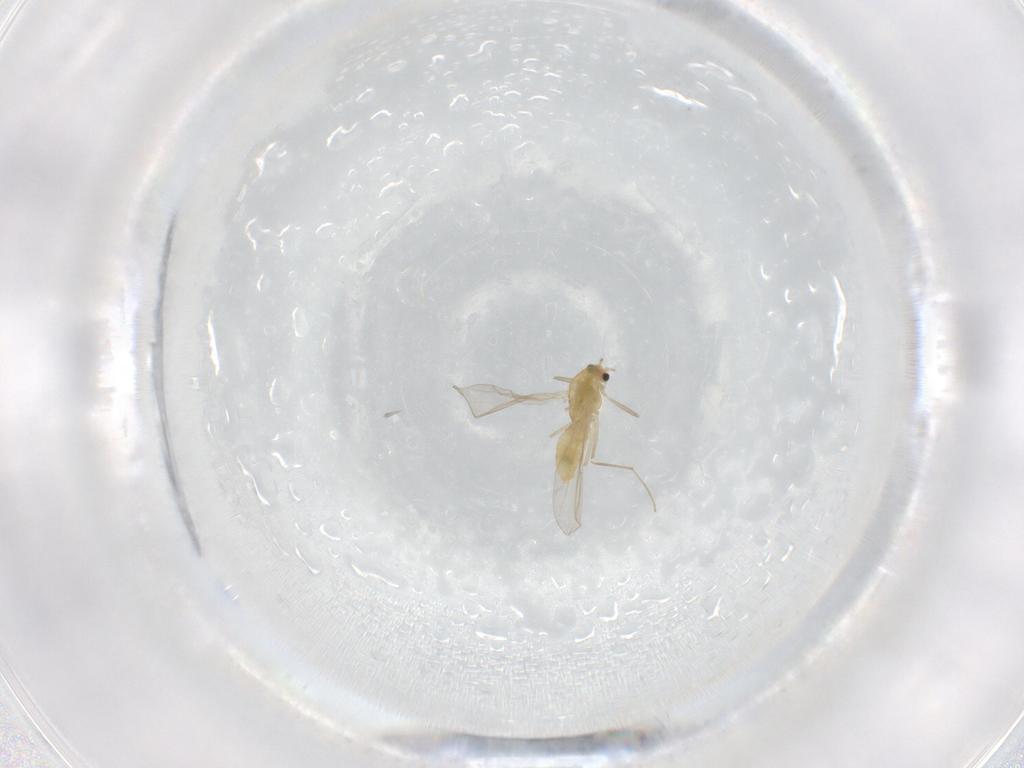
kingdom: Animalia
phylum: Arthropoda
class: Insecta
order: Diptera
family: Chironomidae
